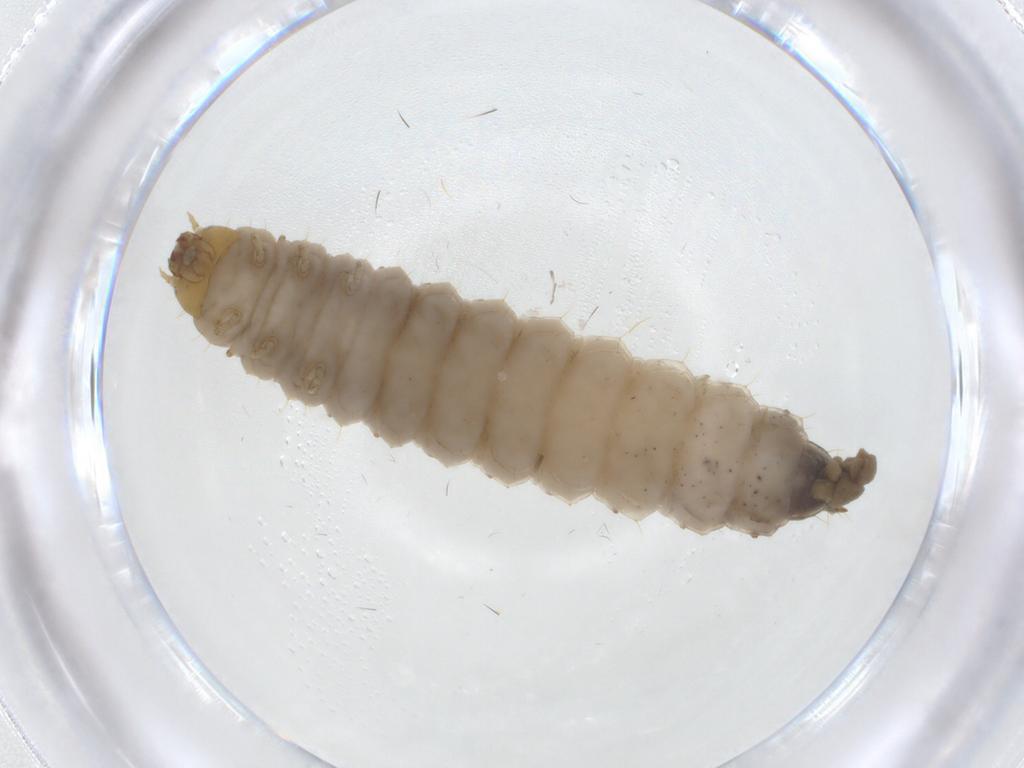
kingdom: Animalia
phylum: Arthropoda
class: Insecta
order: Coleoptera
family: Nitidulidae
